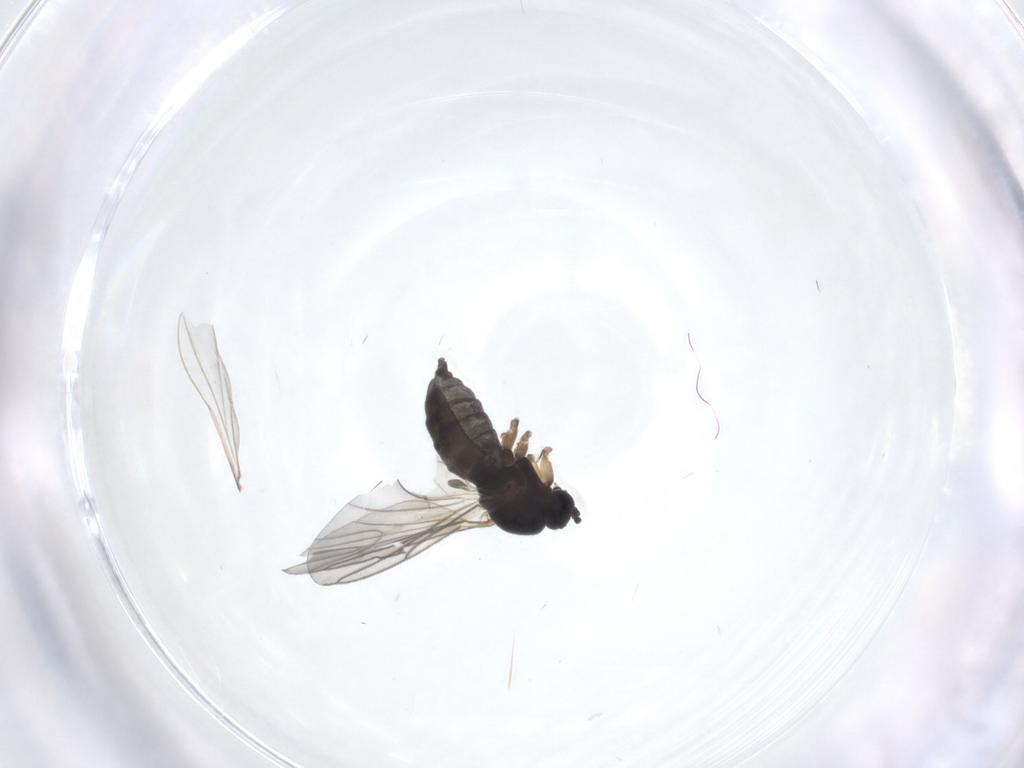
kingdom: Animalia
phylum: Arthropoda
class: Insecta
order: Diptera
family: Sciaridae
